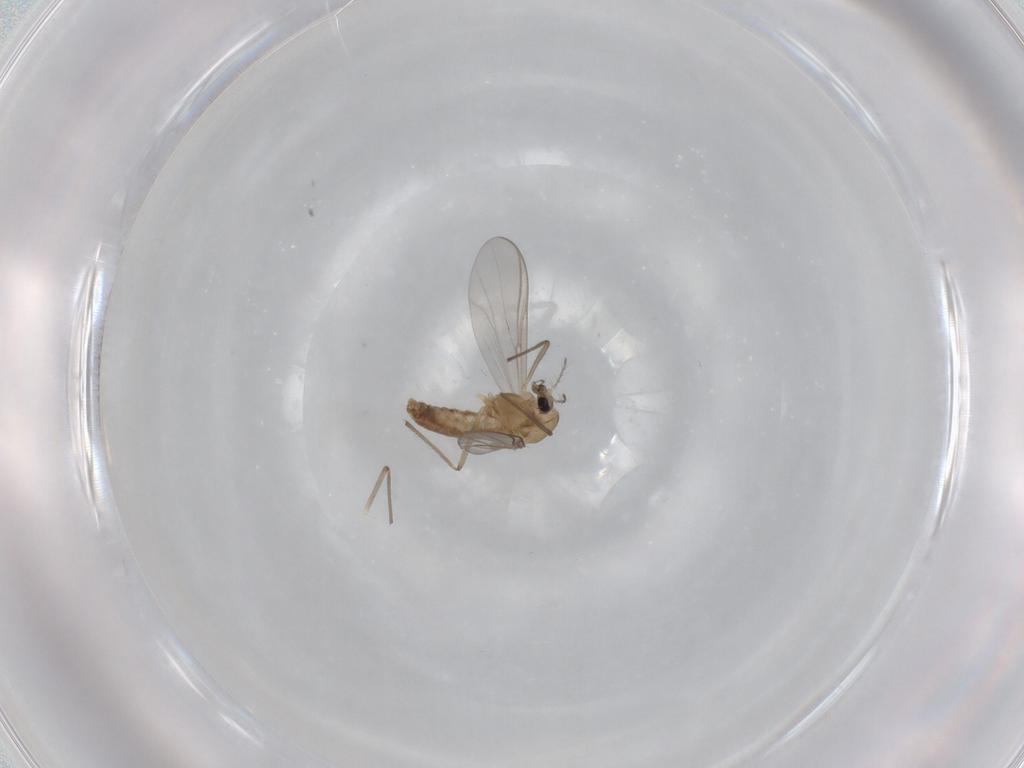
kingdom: Animalia
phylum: Arthropoda
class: Insecta
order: Diptera
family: Chironomidae
